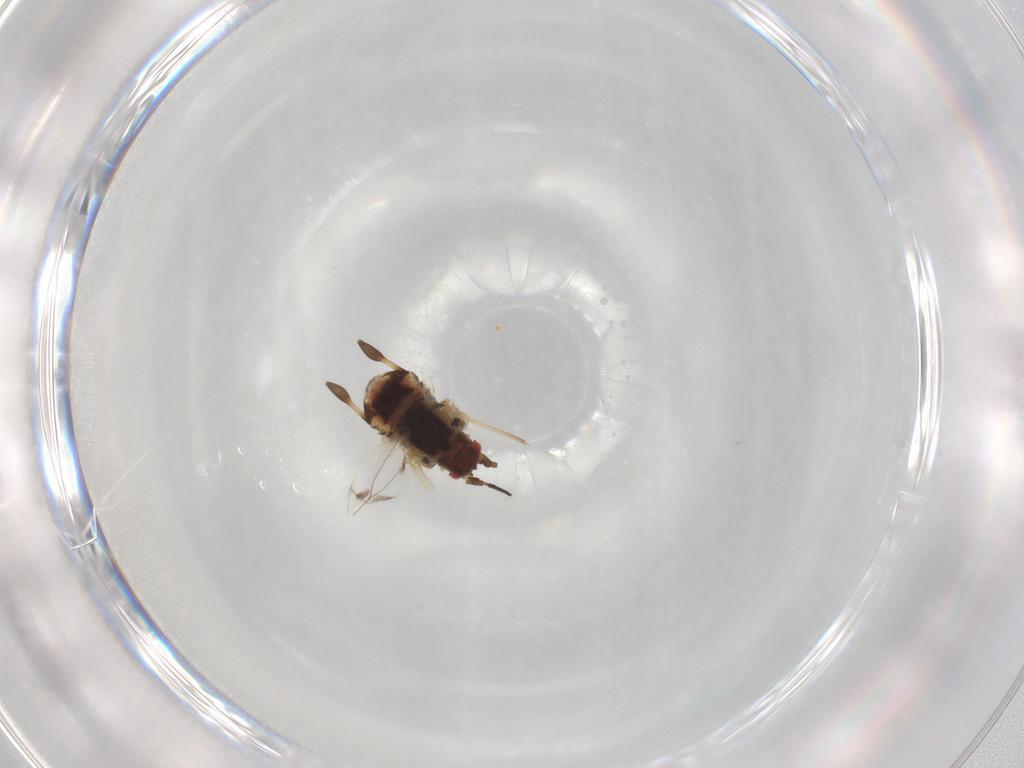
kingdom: Animalia
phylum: Arthropoda
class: Insecta
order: Hemiptera
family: Aphididae
